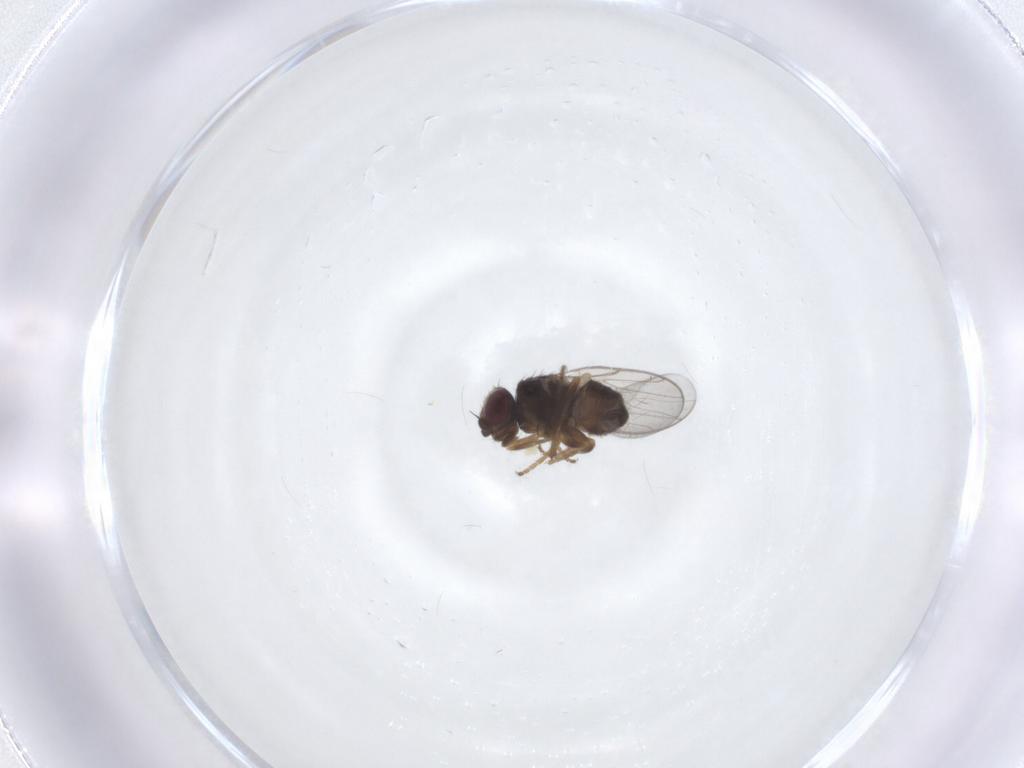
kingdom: Animalia
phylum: Arthropoda
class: Insecta
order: Diptera
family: Chloropidae
